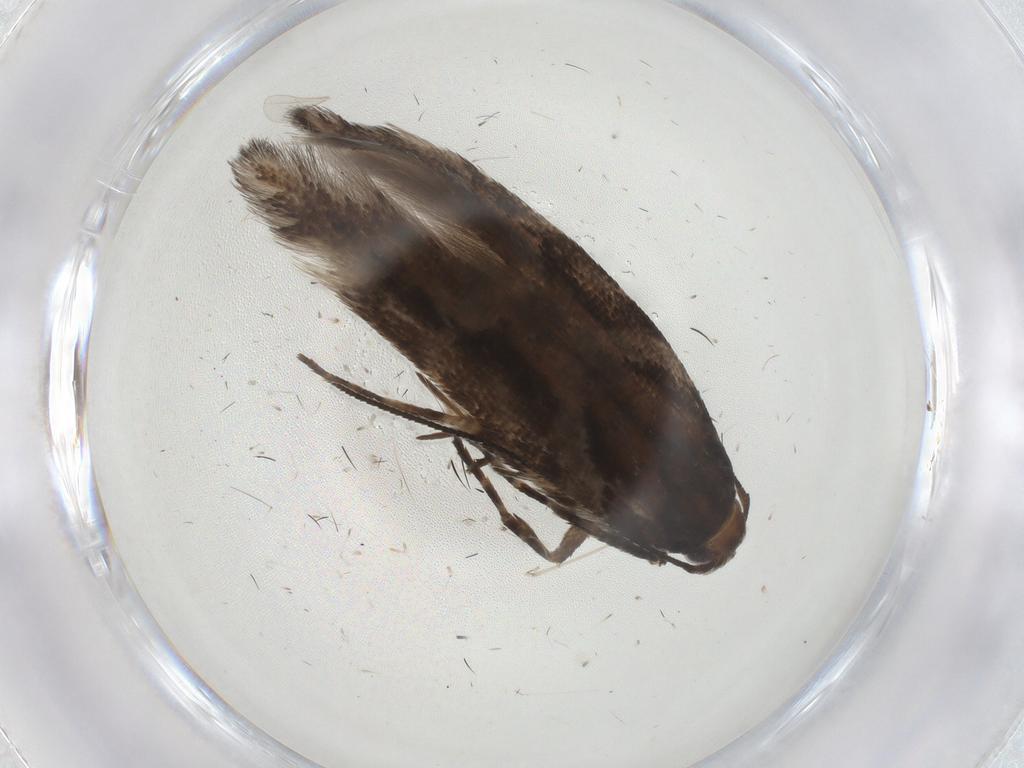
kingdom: Animalia
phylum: Arthropoda
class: Insecta
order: Lepidoptera
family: Gelechiidae
